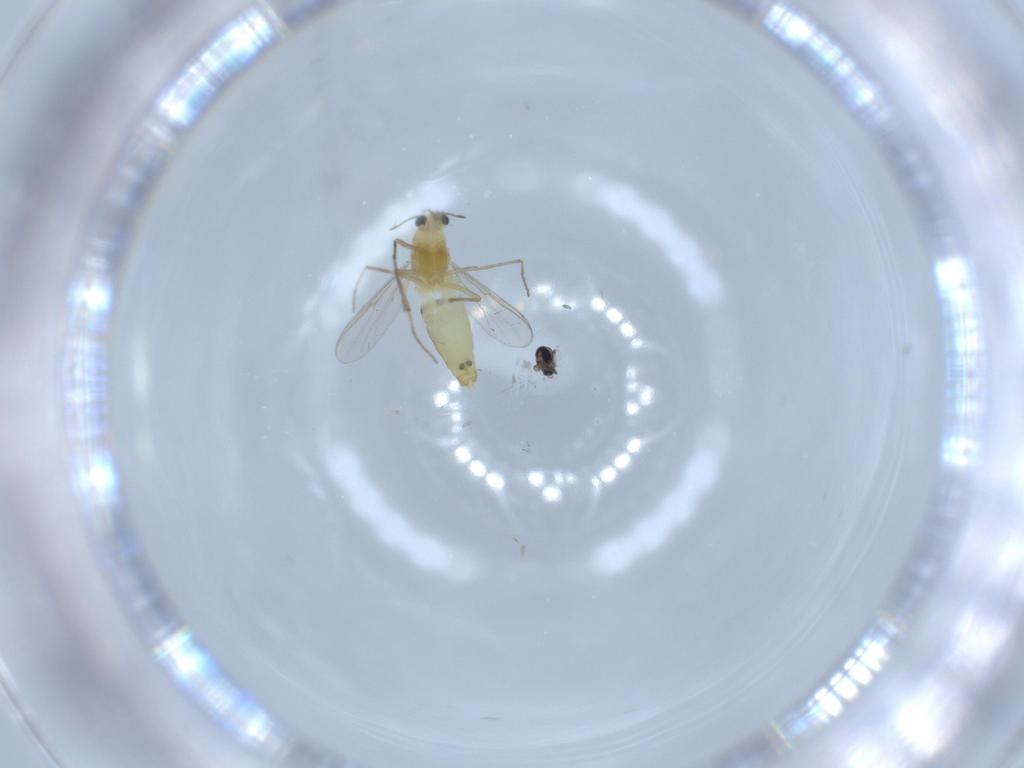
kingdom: Animalia
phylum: Arthropoda
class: Insecta
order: Diptera
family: Chironomidae
